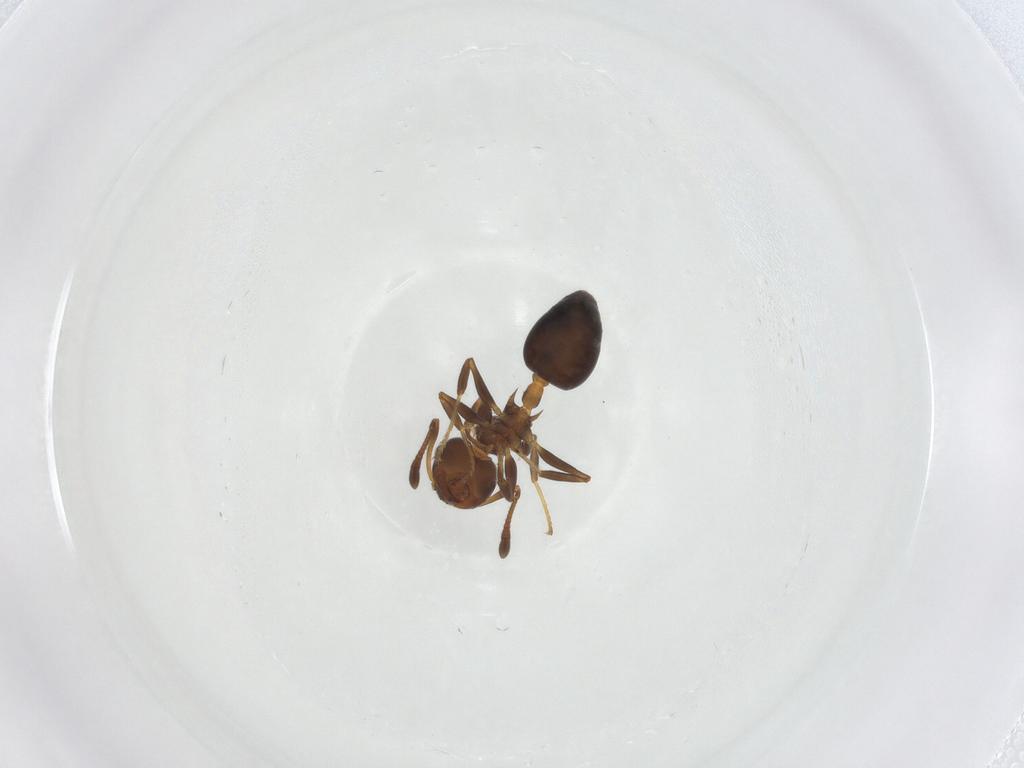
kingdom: Animalia
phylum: Arthropoda
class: Insecta
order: Hymenoptera
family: Formicidae
